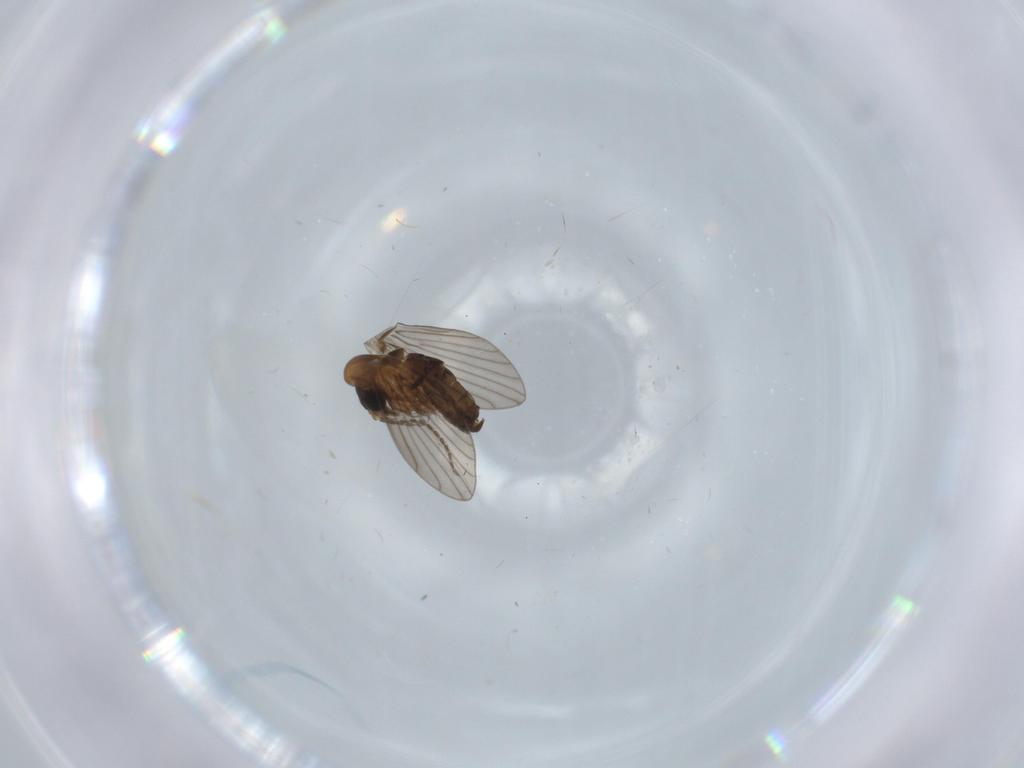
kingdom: Animalia
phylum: Arthropoda
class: Insecta
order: Diptera
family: Psychodidae
